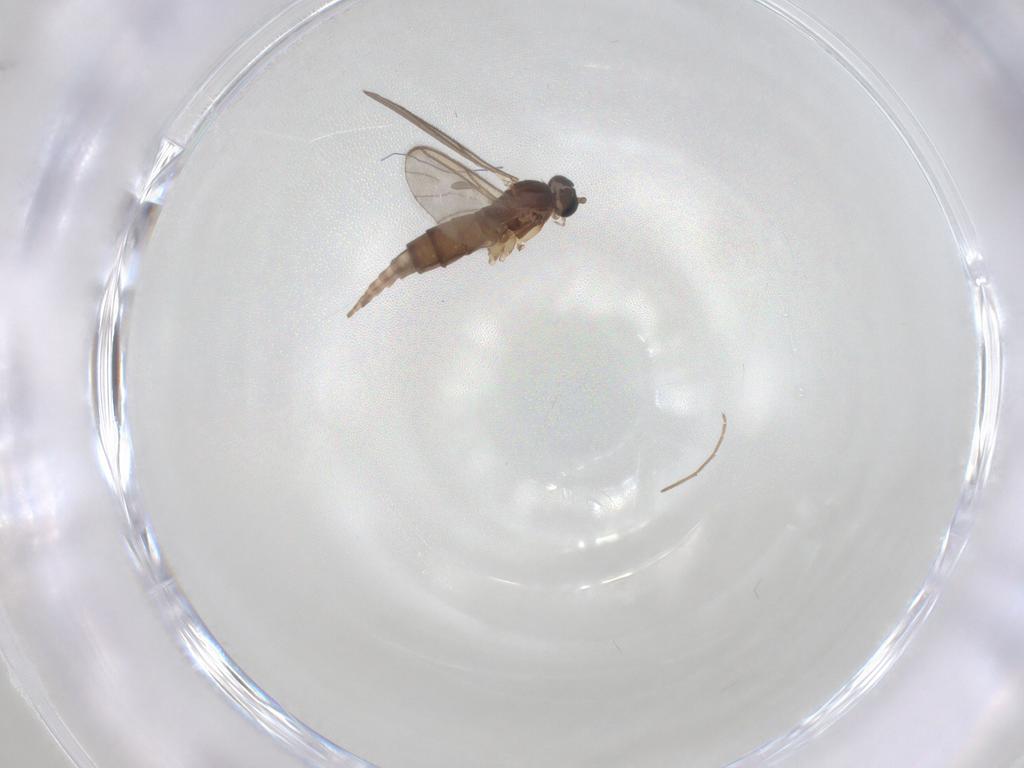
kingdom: Animalia
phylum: Arthropoda
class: Insecta
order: Diptera
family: Sciaridae
